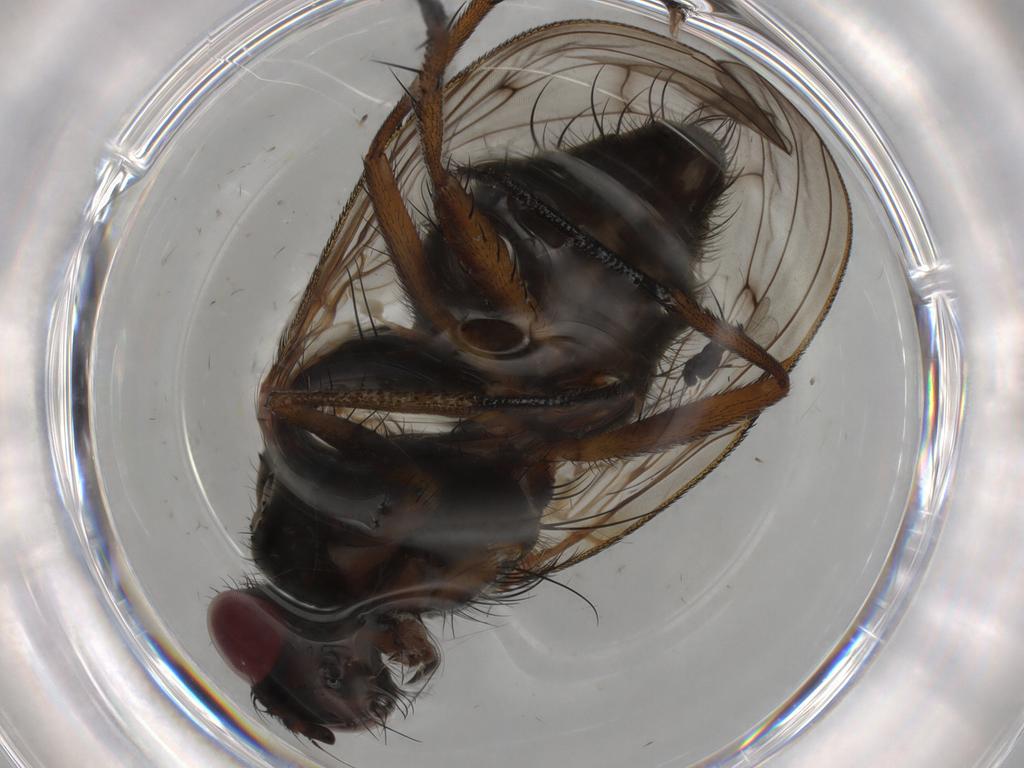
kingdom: Animalia
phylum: Arthropoda
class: Insecta
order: Diptera
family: Anthomyiidae
